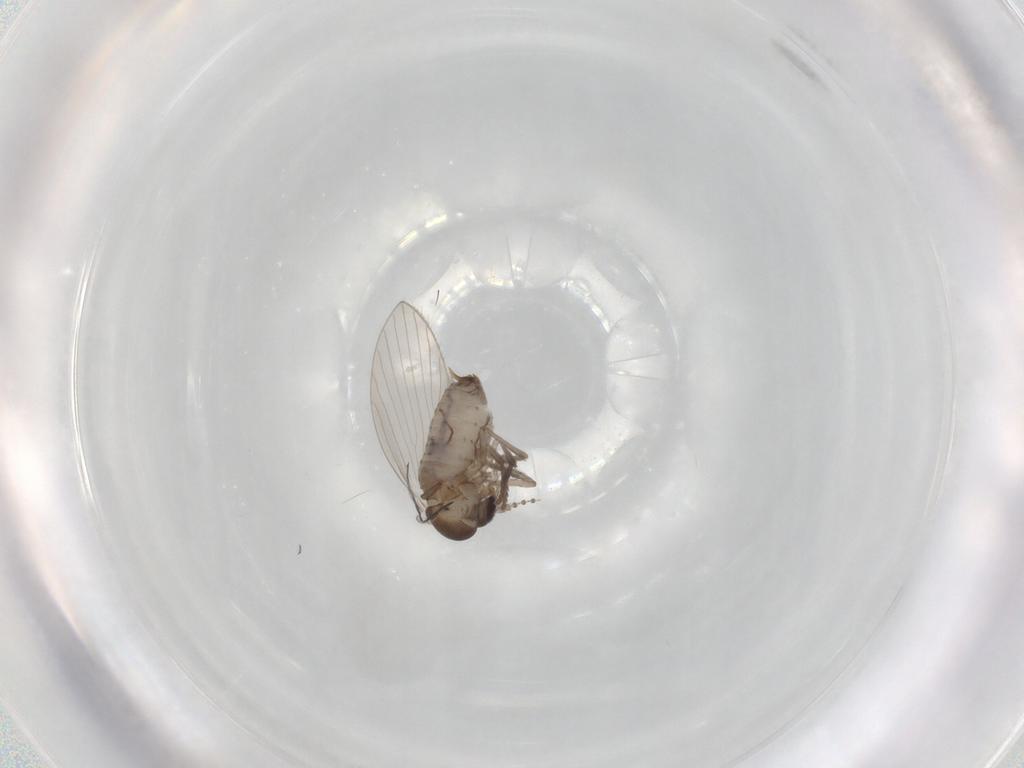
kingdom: Animalia
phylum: Arthropoda
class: Insecta
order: Diptera
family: Psychodidae
